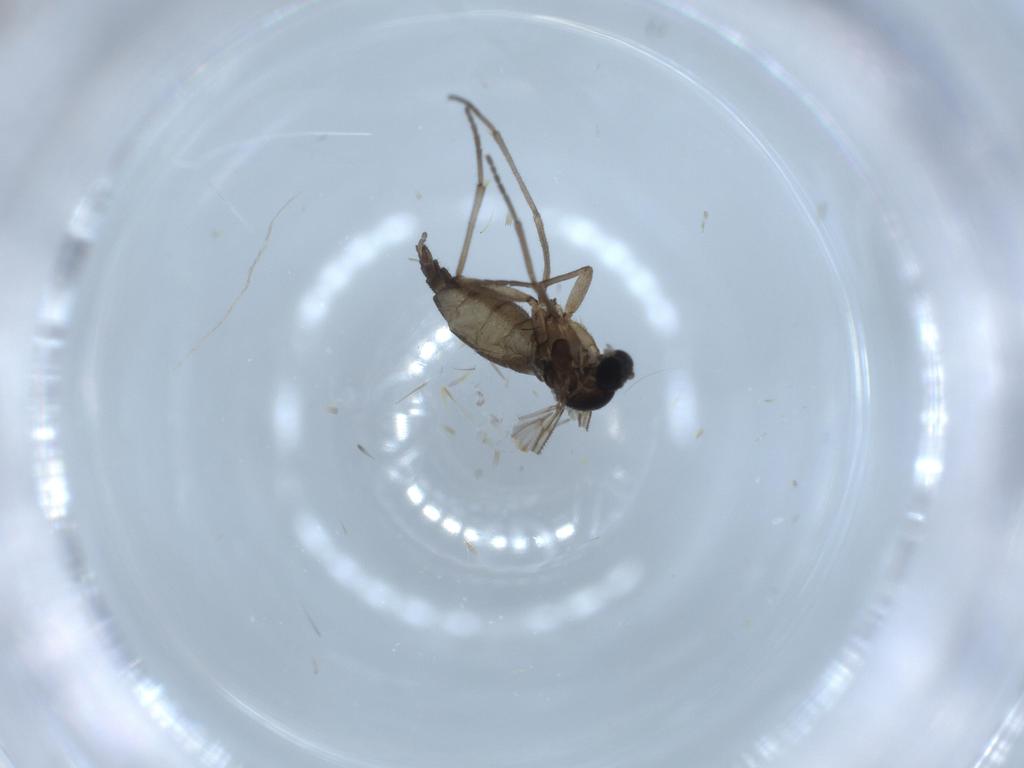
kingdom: Animalia
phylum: Arthropoda
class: Insecta
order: Diptera
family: Sciaridae
